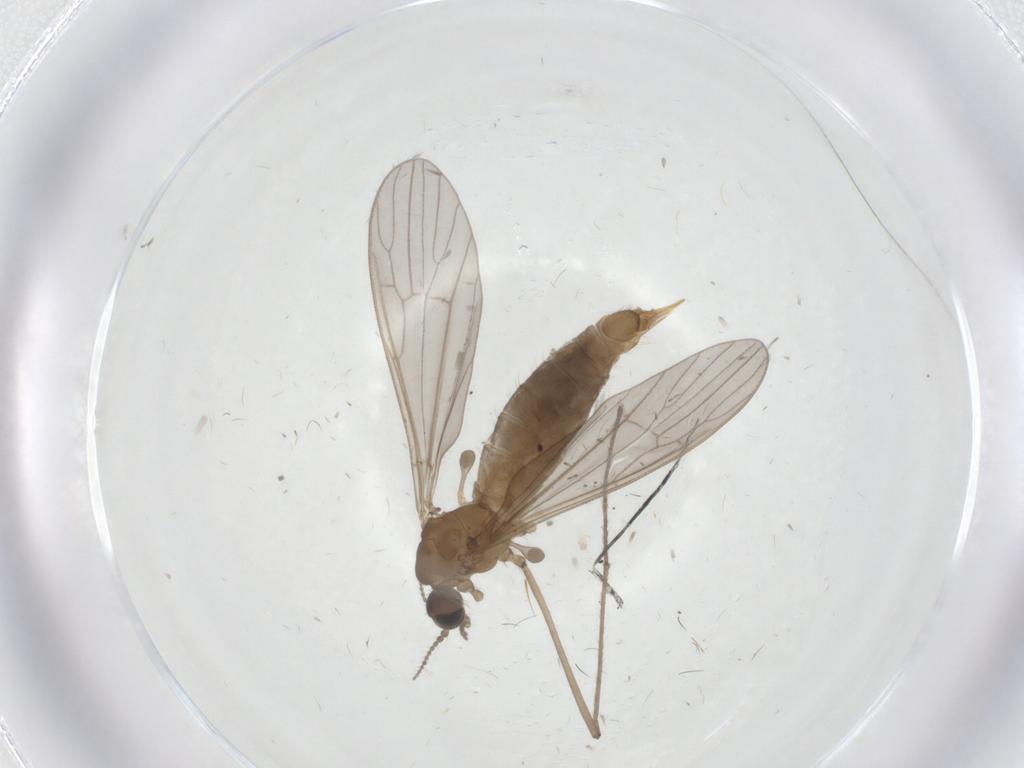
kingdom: Animalia
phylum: Arthropoda
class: Insecta
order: Diptera
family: Limoniidae
